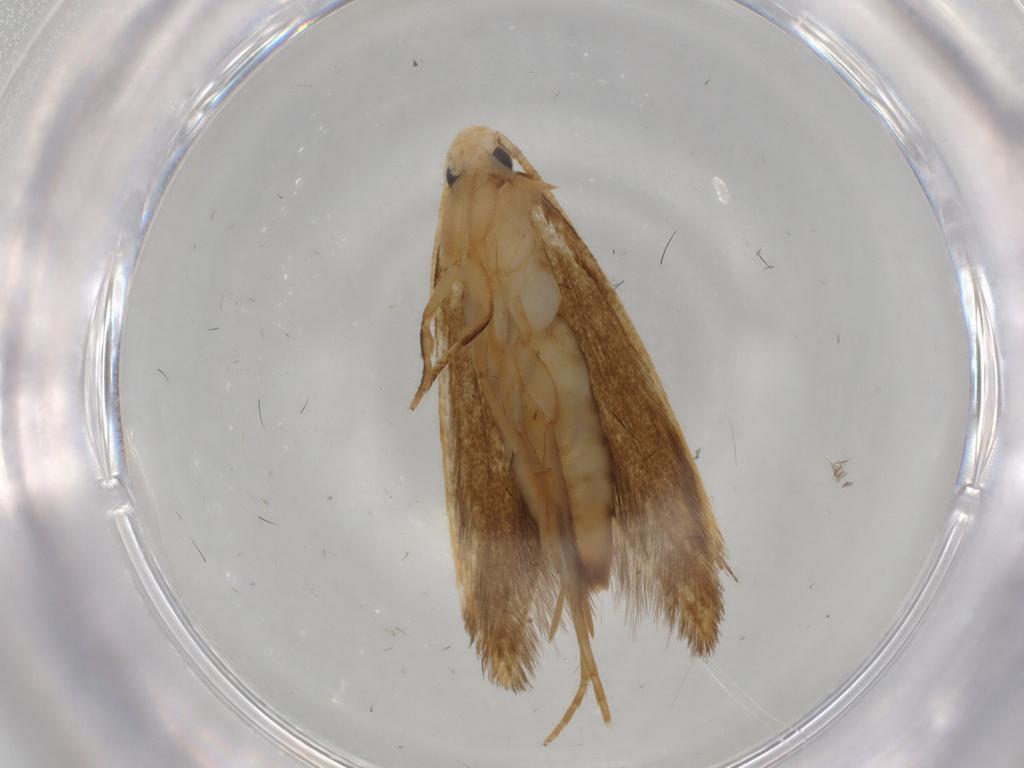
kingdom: Animalia
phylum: Arthropoda
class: Insecta
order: Lepidoptera
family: Tineidae
